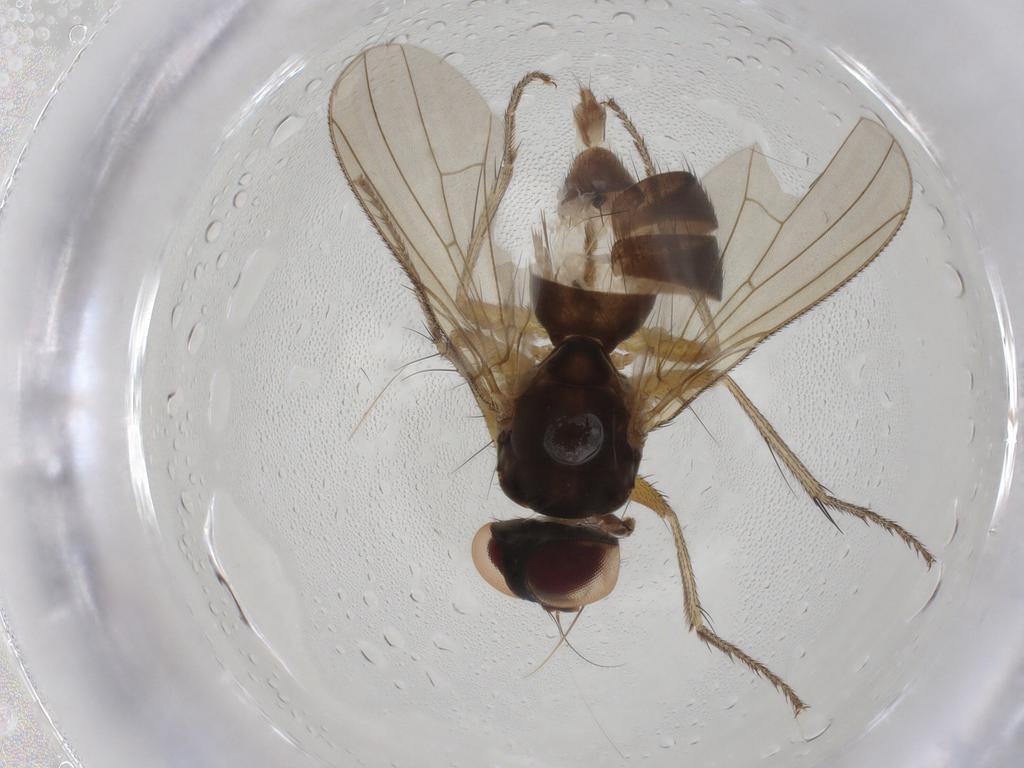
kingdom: Animalia
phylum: Arthropoda
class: Insecta
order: Diptera
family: Anthomyiidae
